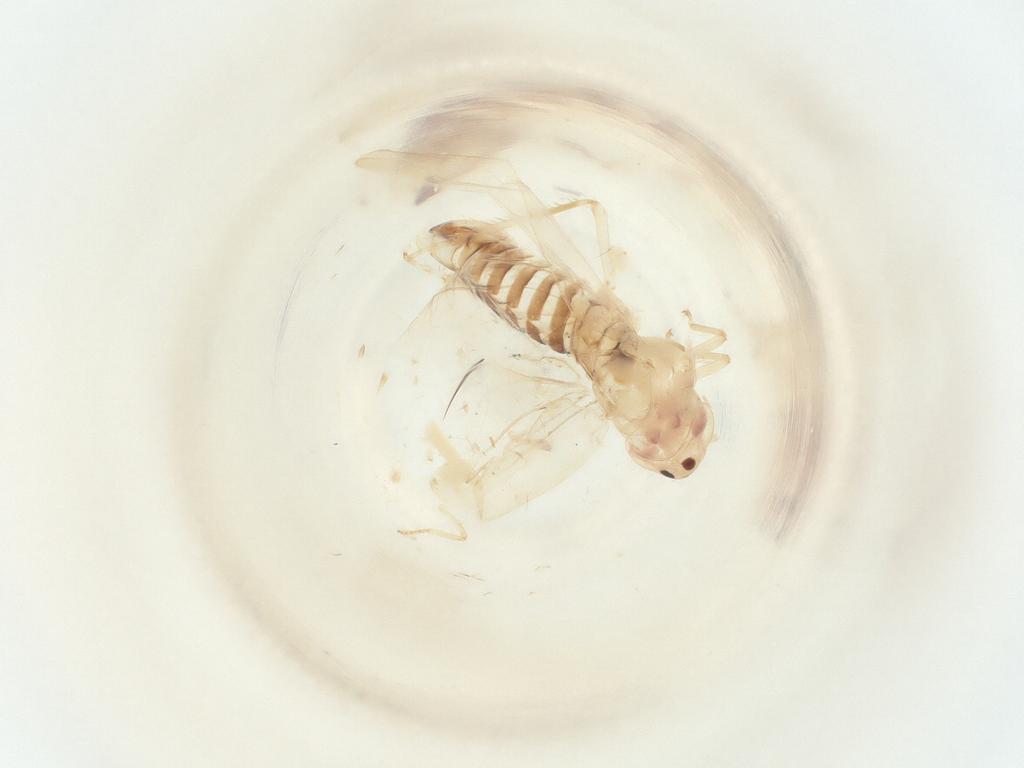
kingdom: Animalia
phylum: Arthropoda
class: Insecta
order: Hemiptera
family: Cicadellidae
